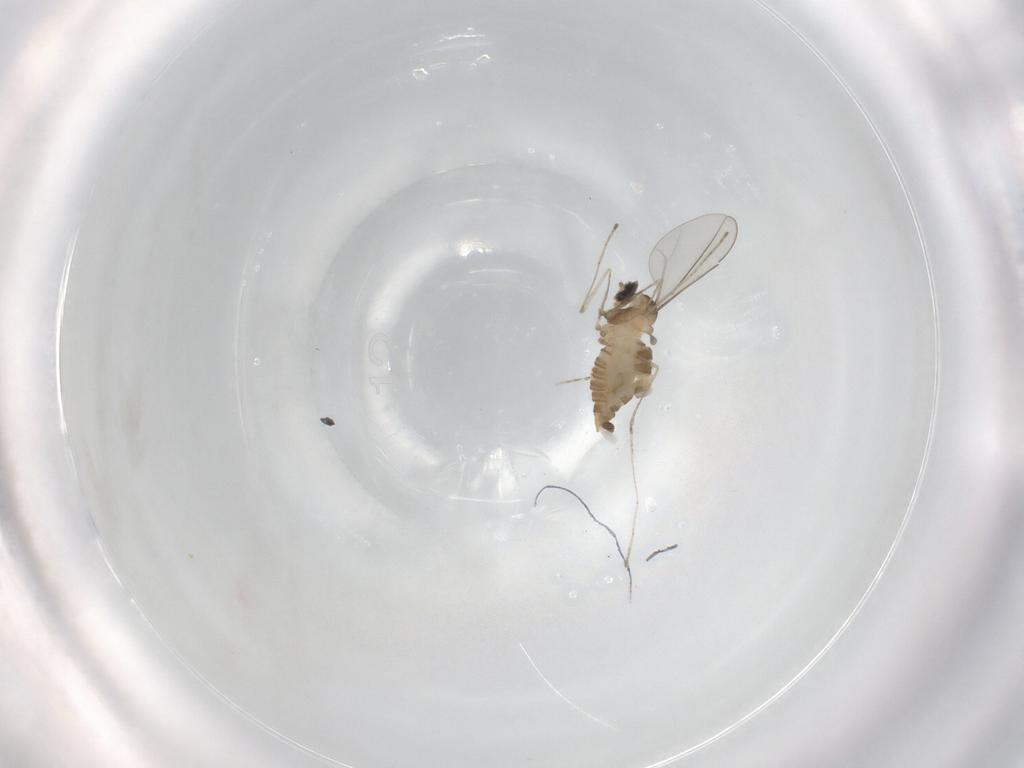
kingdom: Animalia
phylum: Arthropoda
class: Insecta
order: Diptera
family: Cecidomyiidae
